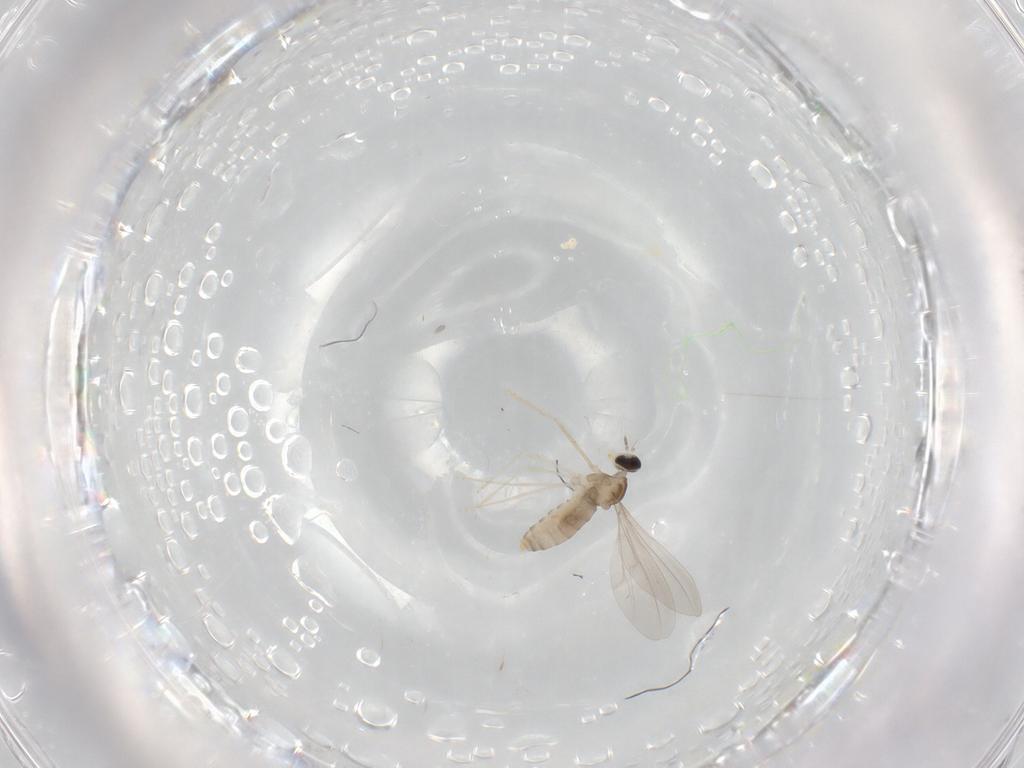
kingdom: Animalia
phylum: Arthropoda
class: Insecta
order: Diptera
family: Cecidomyiidae
